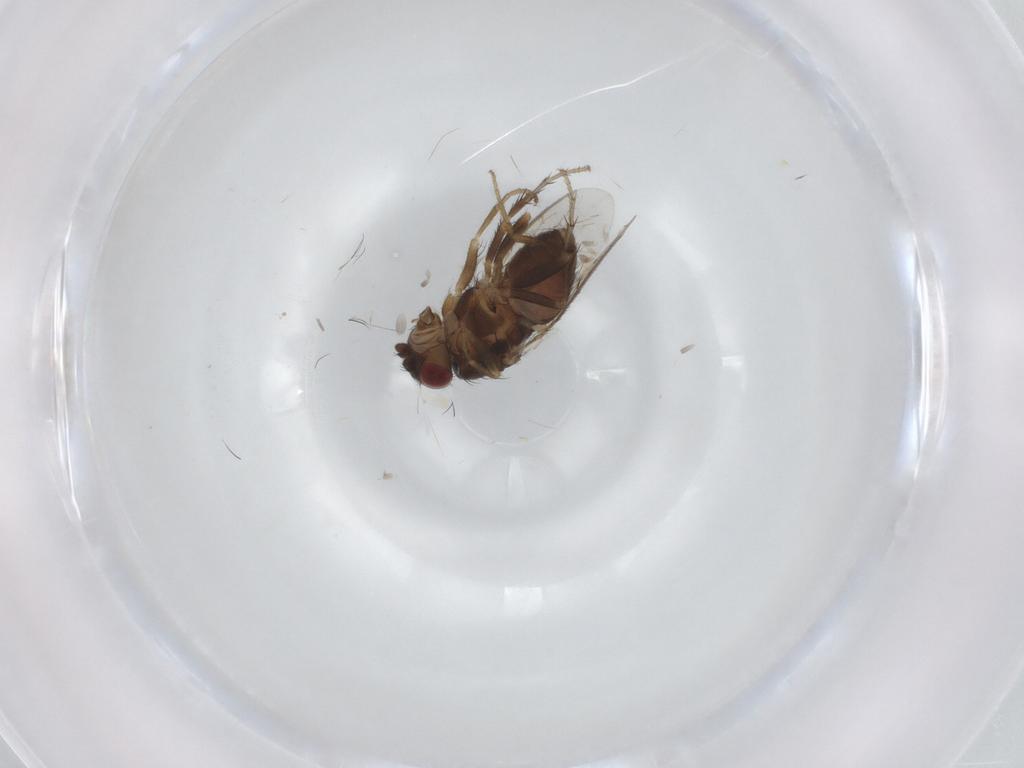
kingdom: Animalia
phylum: Arthropoda
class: Insecta
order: Diptera
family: Sphaeroceridae
